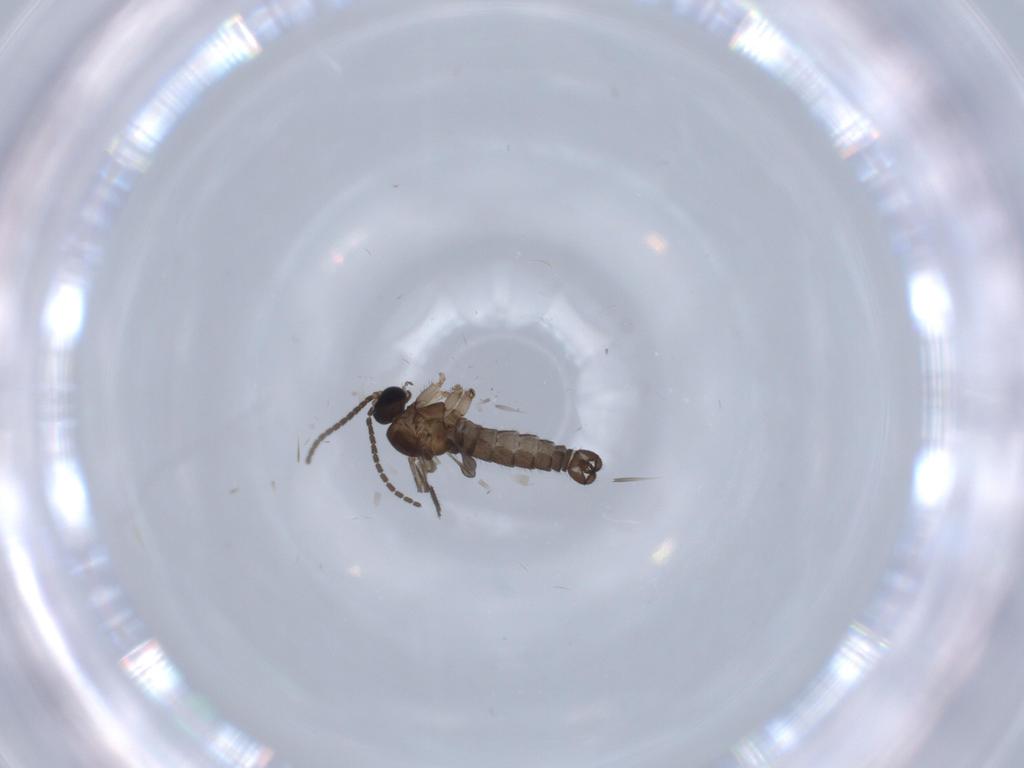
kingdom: Animalia
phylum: Arthropoda
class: Insecta
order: Diptera
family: Sciaridae
